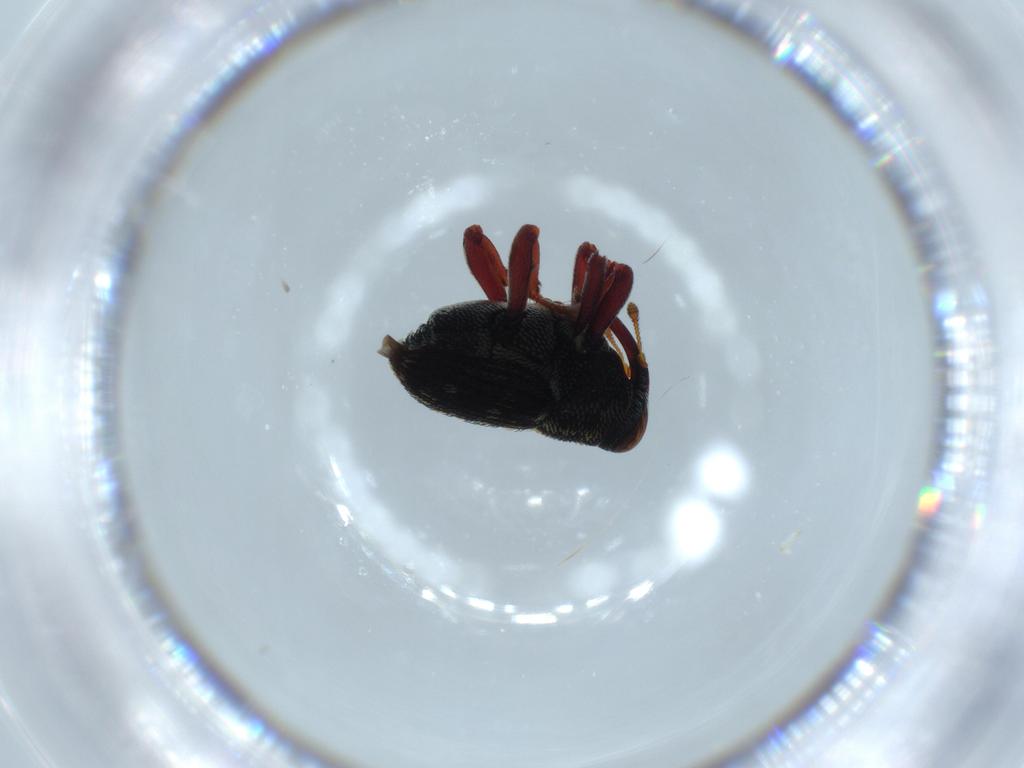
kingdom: Animalia
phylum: Arthropoda
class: Insecta
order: Coleoptera
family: Curculionidae
